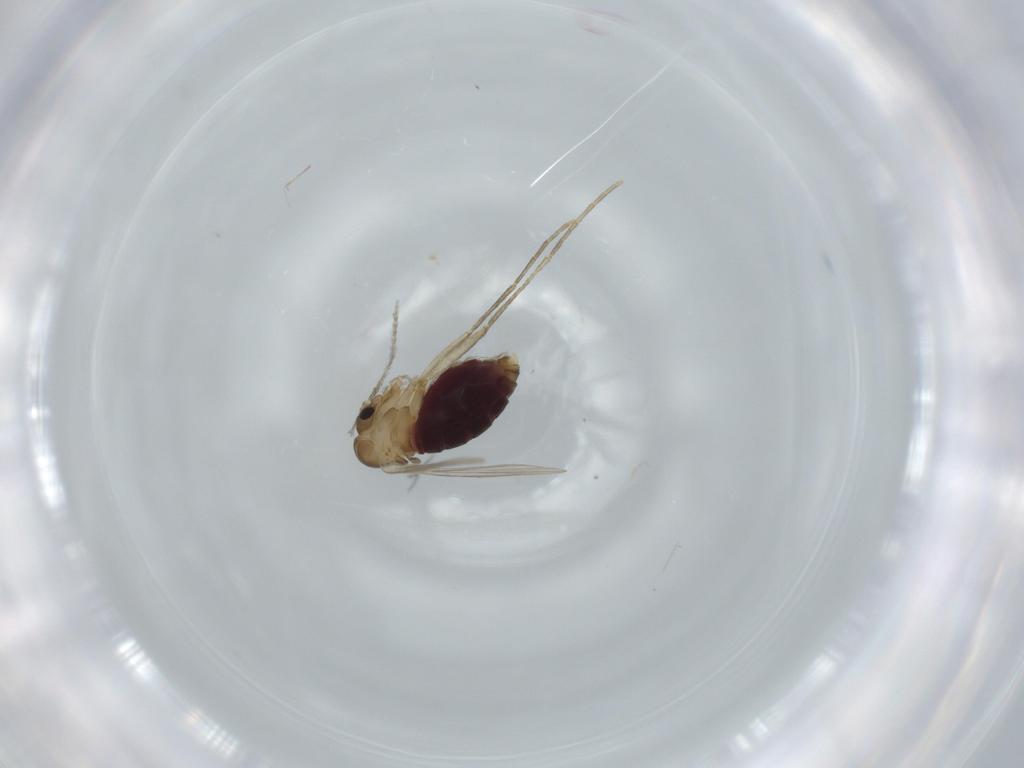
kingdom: Animalia
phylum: Arthropoda
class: Insecta
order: Diptera
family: Psychodidae
